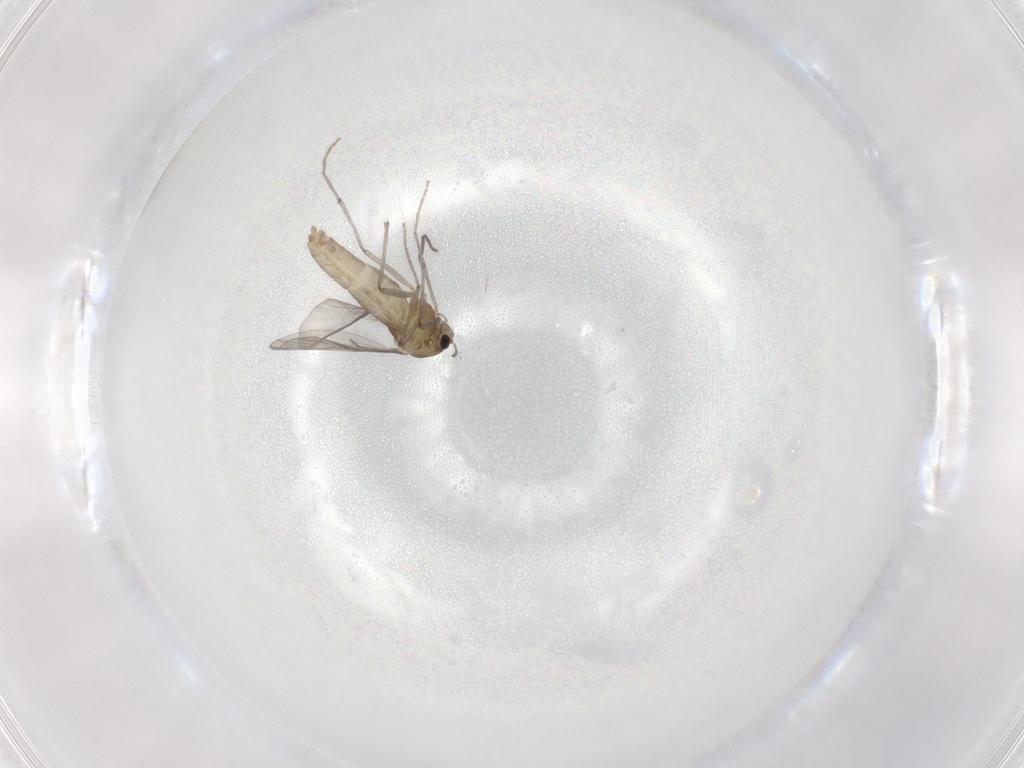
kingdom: Animalia
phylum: Arthropoda
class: Insecta
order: Diptera
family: Chironomidae
